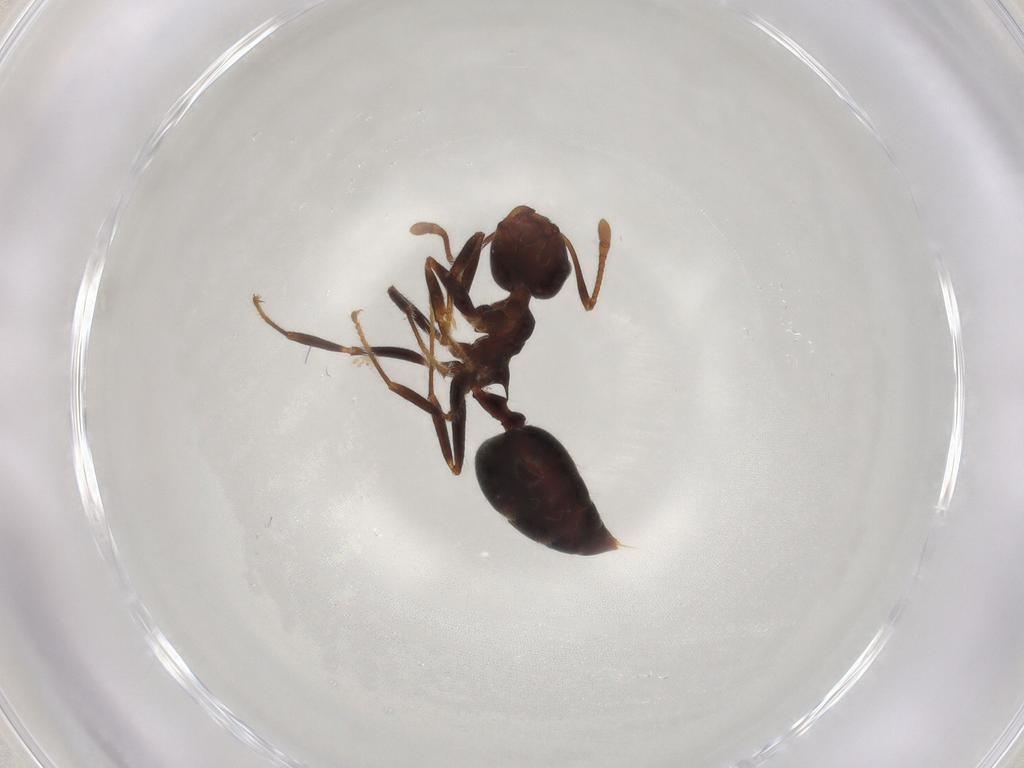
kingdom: Animalia
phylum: Arthropoda
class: Insecta
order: Hymenoptera
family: Formicidae
